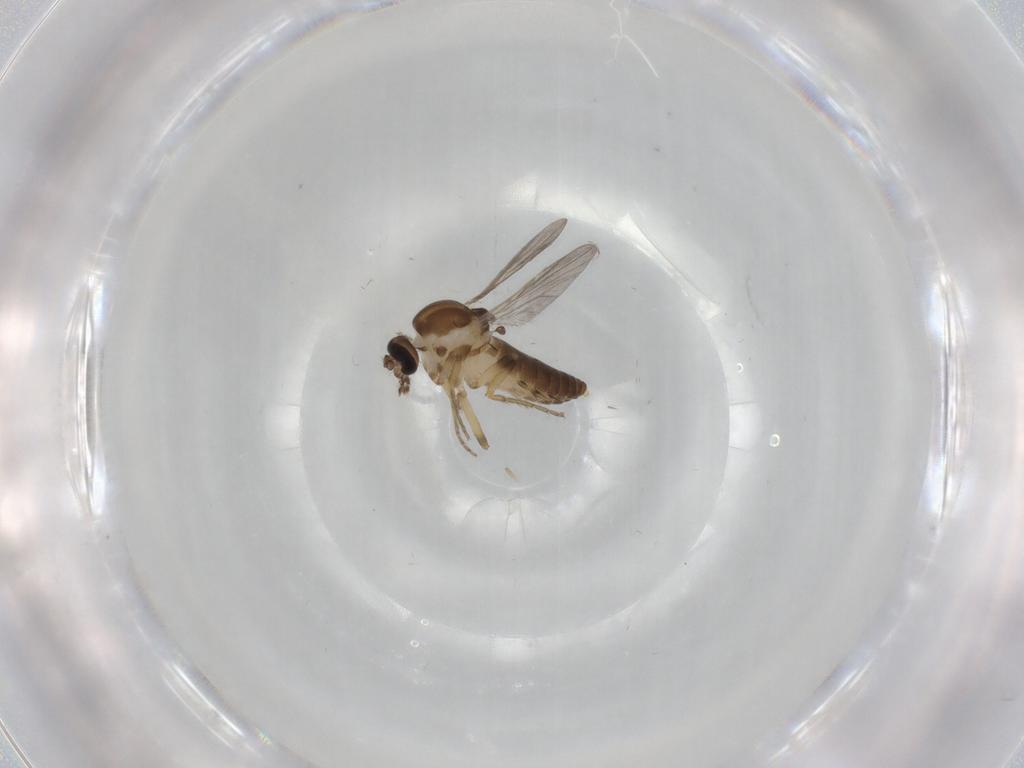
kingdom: Animalia
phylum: Arthropoda
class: Insecta
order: Diptera
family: Ceratopogonidae
